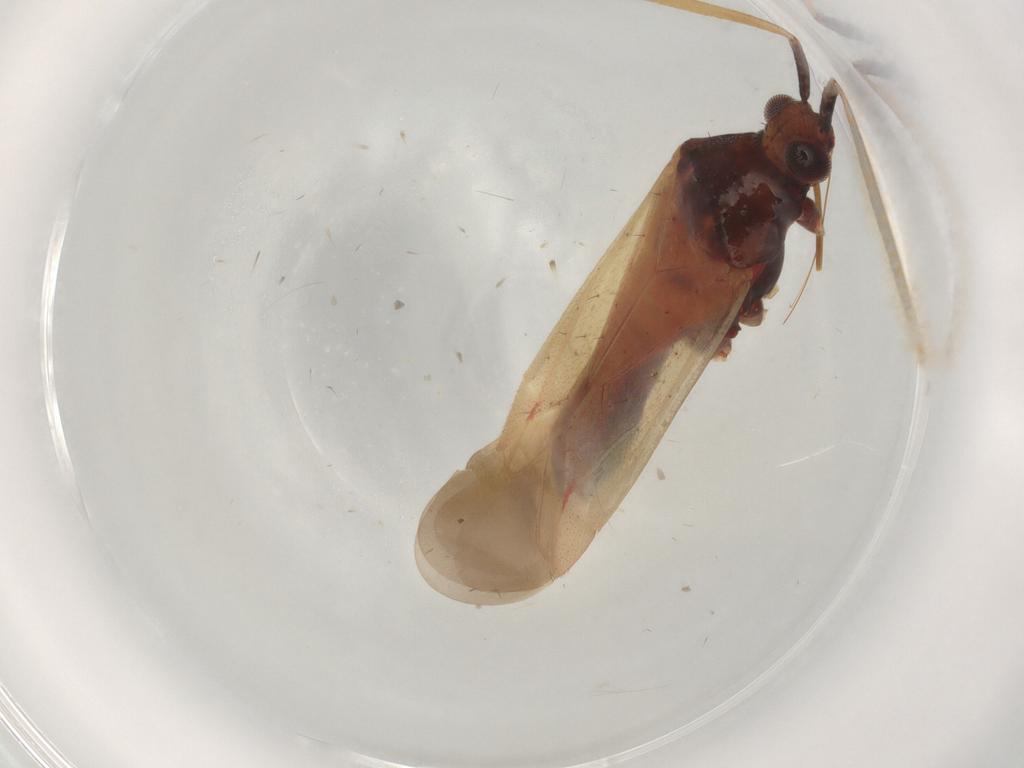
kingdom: Animalia
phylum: Arthropoda
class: Insecta
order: Hemiptera
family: Miridae
